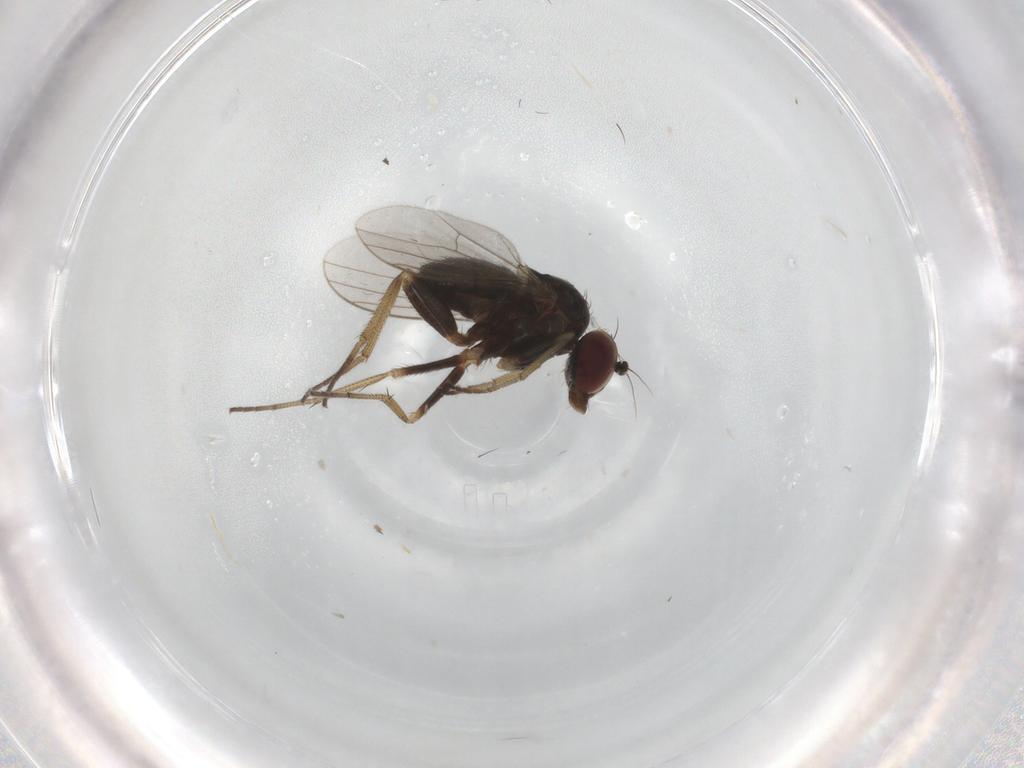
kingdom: Animalia
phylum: Arthropoda
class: Insecta
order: Diptera
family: Dolichopodidae
